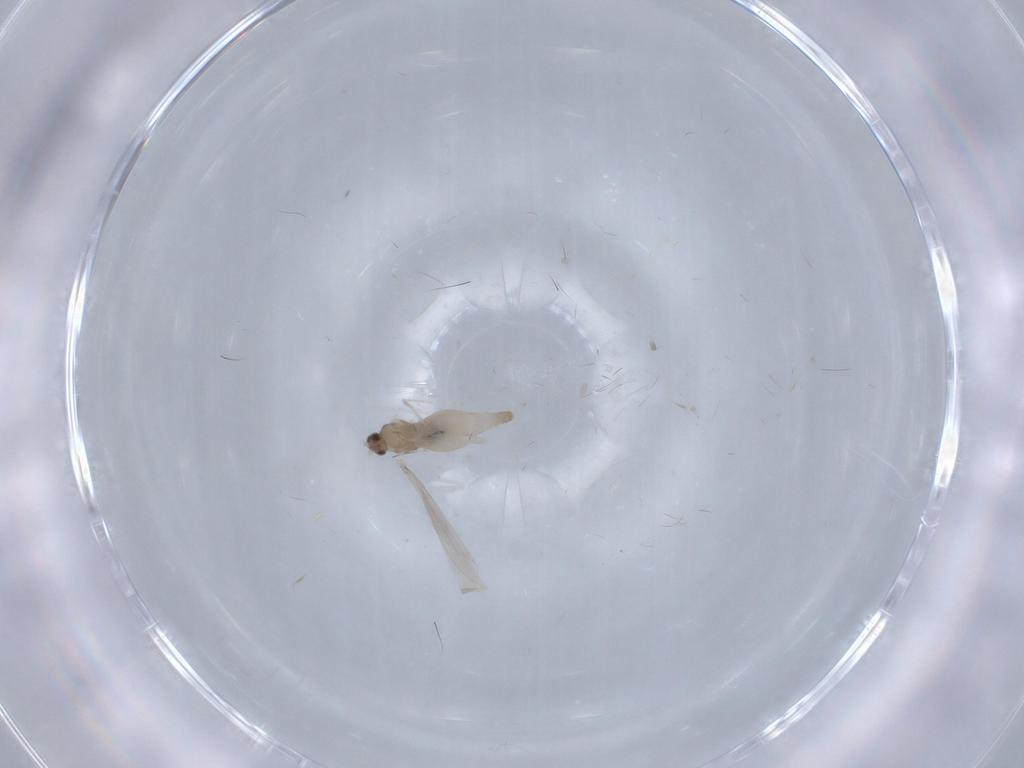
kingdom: Animalia
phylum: Arthropoda
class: Insecta
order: Diptera
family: Cecidomyiidae
